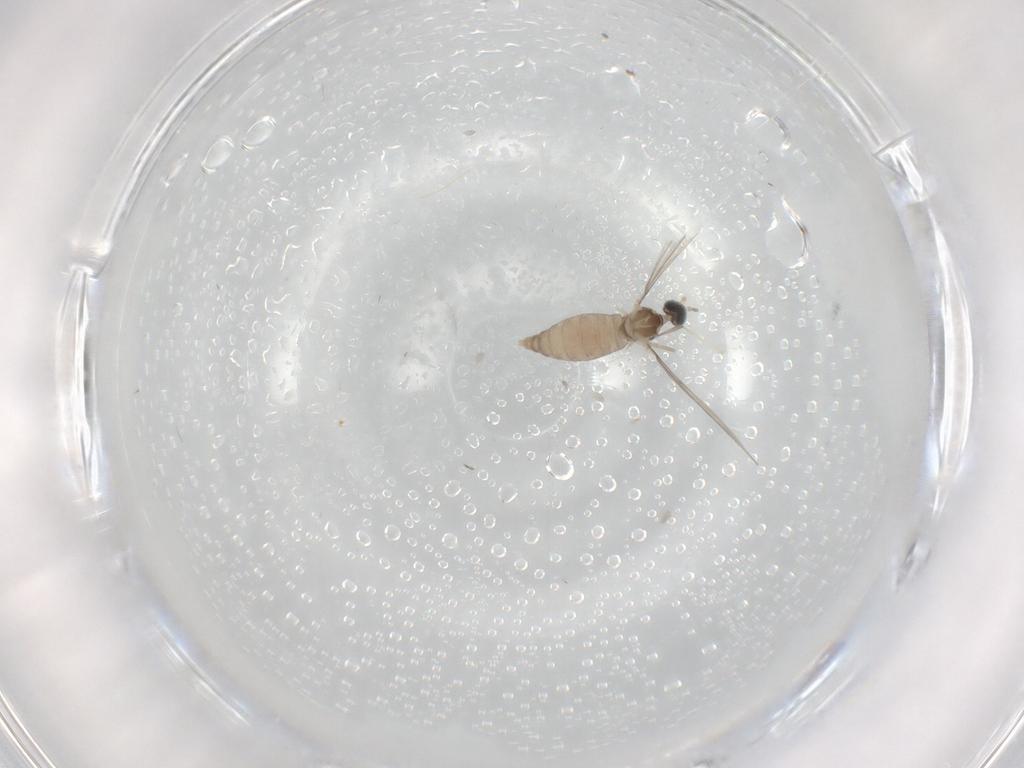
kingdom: Animalia
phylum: Arthropoda
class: Insecta
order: Diptera
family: Cecidomyiidae
